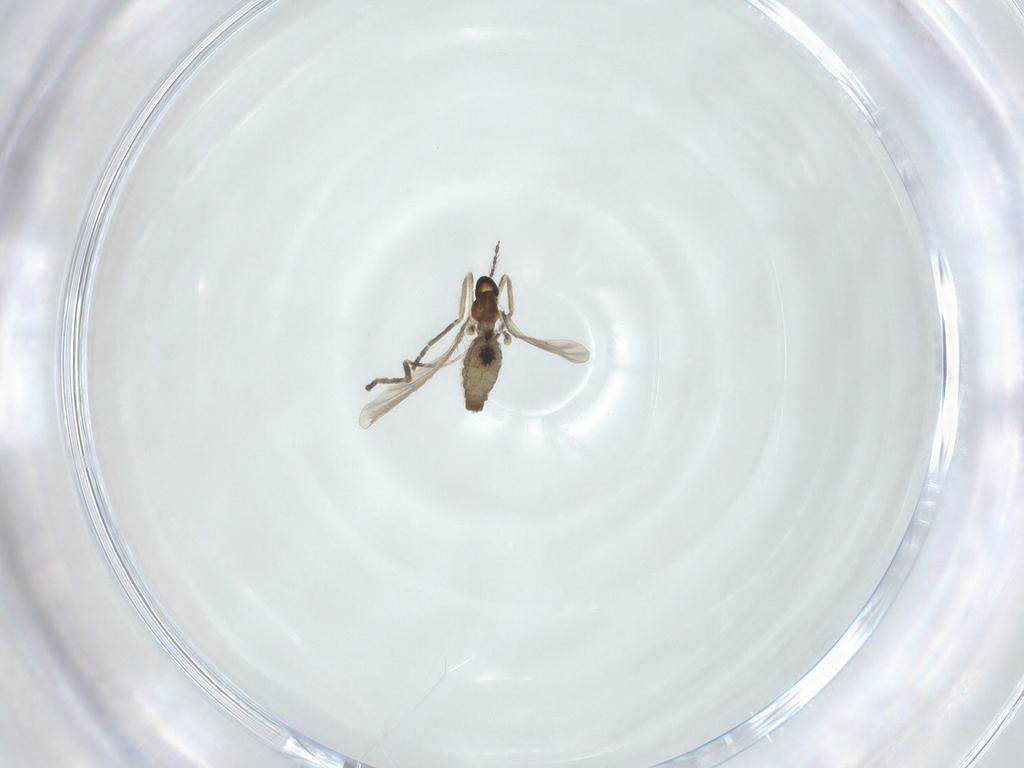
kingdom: Animalia
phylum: Arthropoda
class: Insecta
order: Diptera
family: Cecidomyiidae
